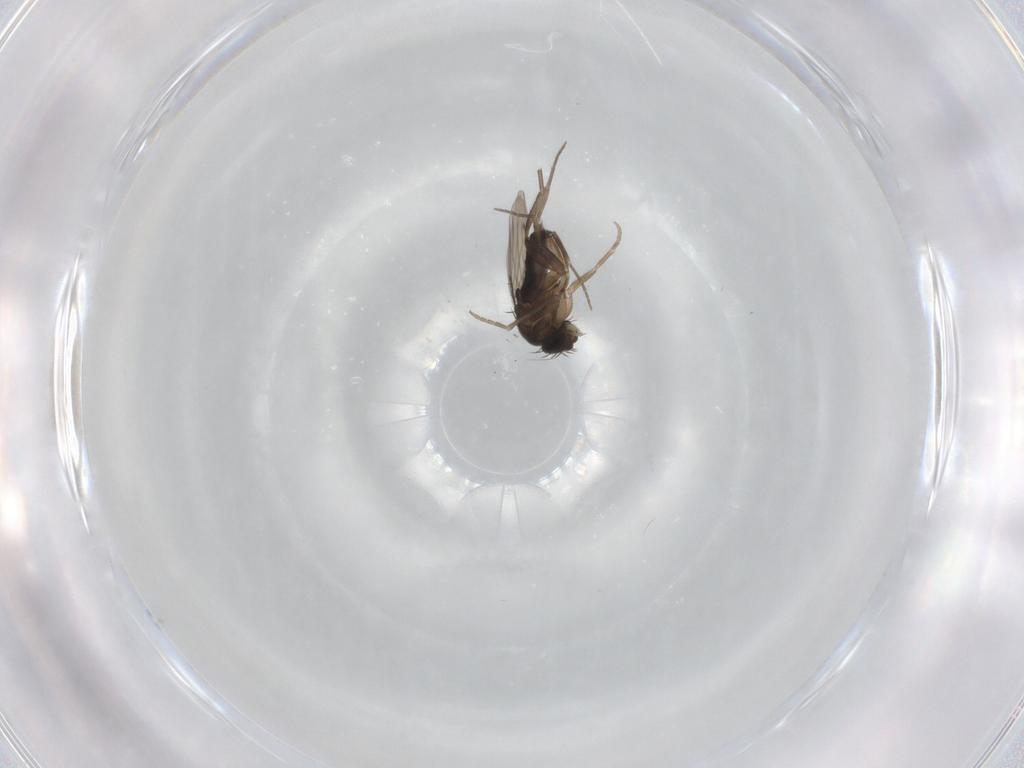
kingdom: Animalia
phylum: Arthropoda
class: Insecta
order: Diptera
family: Phoridae
